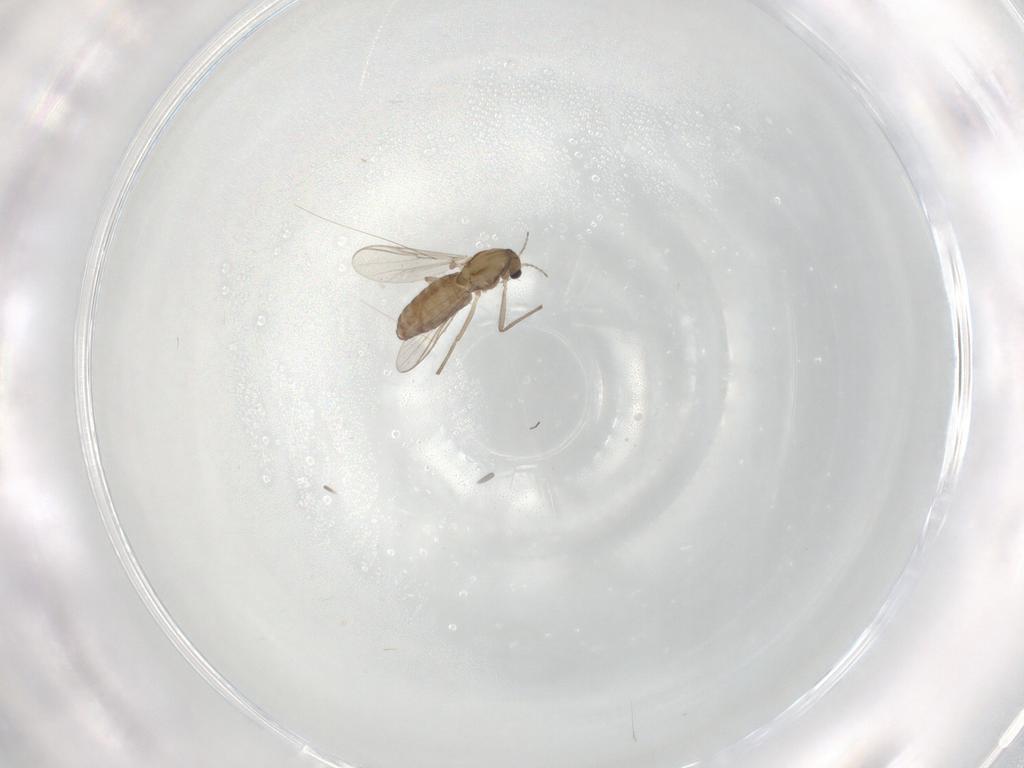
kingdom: Animalia
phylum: Arthropoda
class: Insecta
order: Diptera
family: Chironomidae
